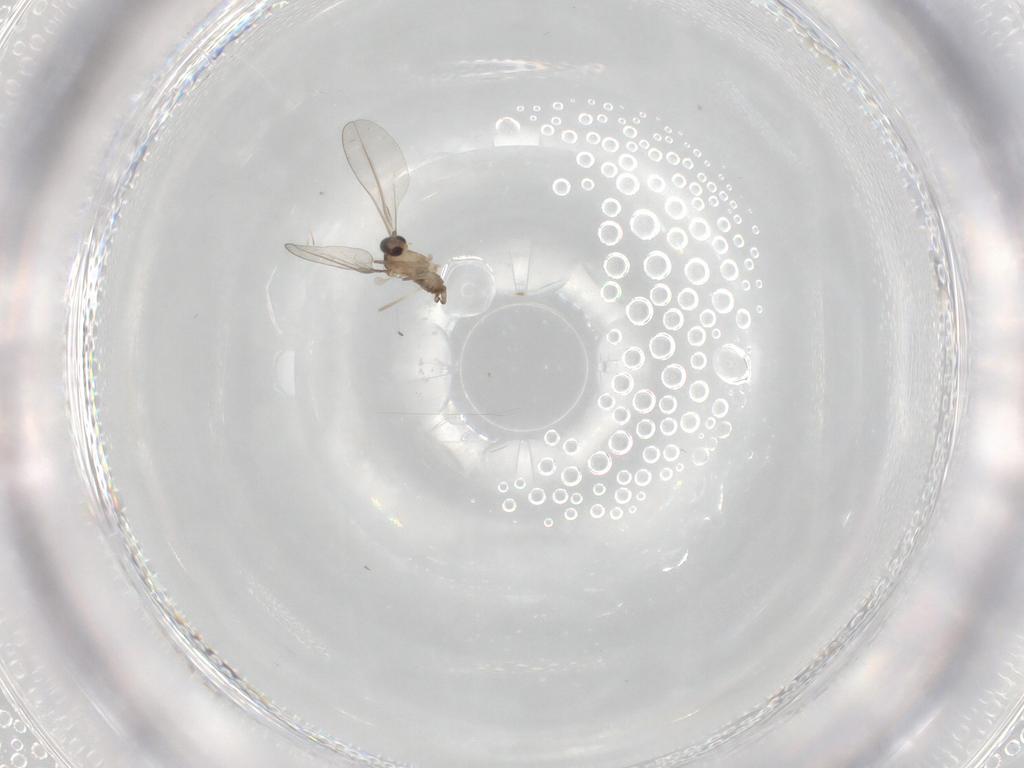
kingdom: Animalia
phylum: Arthropoda
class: Insecta
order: Diptera
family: Cecidomyiidae
